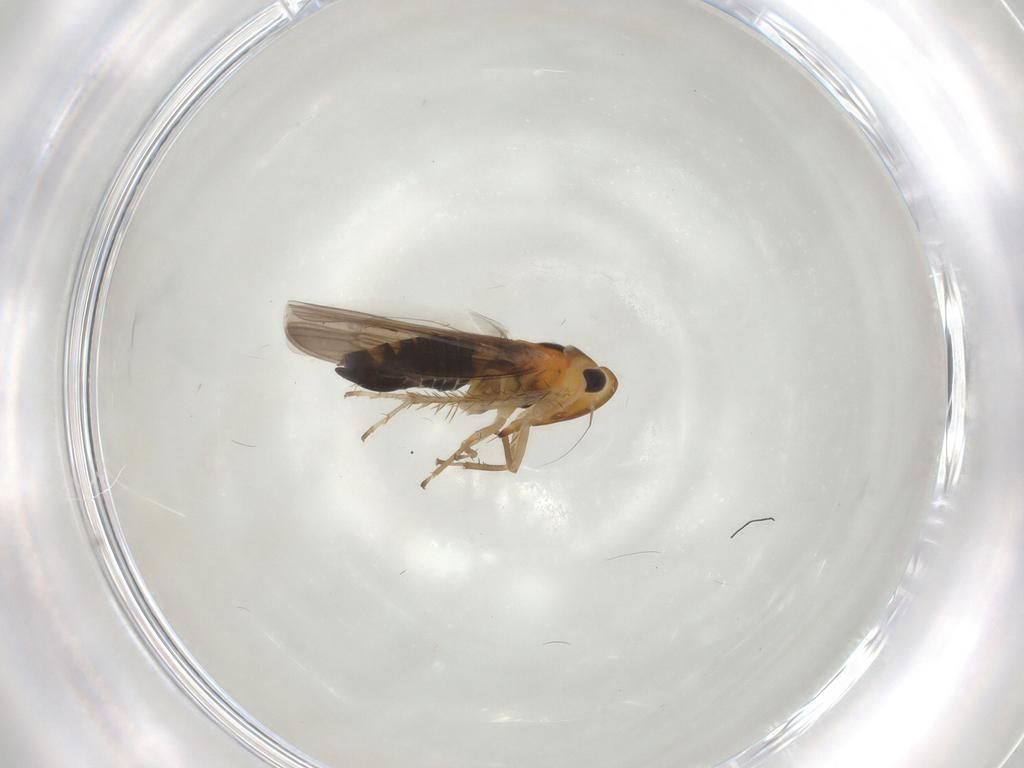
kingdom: Animalia
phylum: Arthropoda
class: Insecta
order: Hemiptera
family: Cicadellidae
